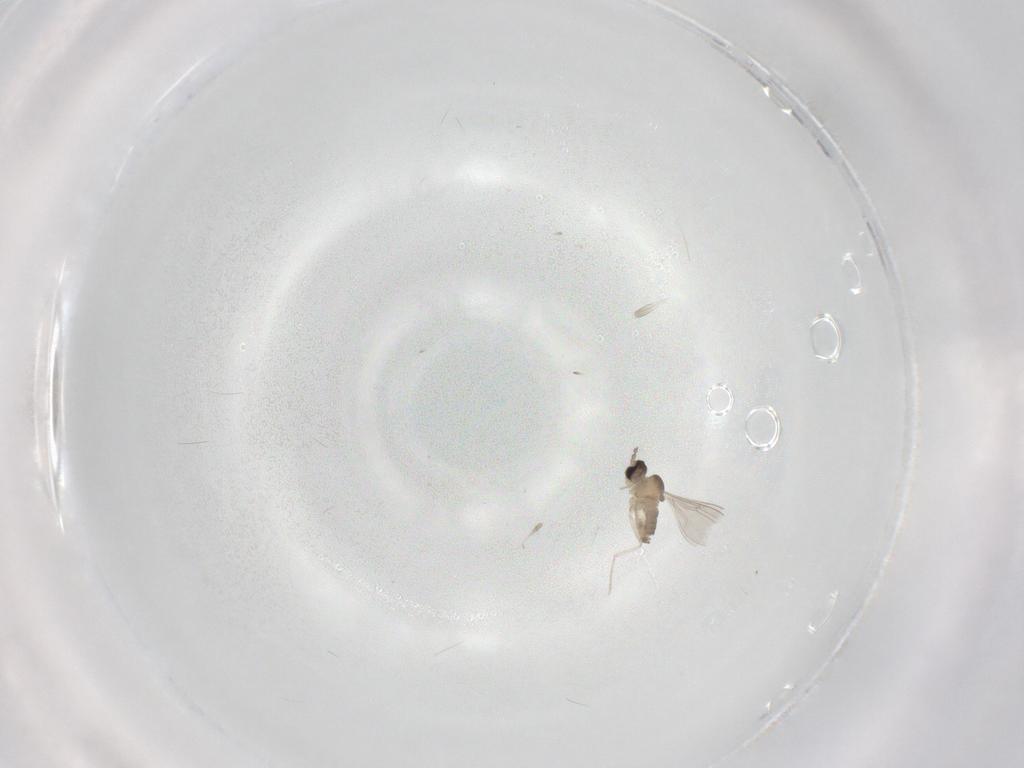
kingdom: Animalia
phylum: Arthropoda
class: Insecta
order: Diptera
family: Cecidomyiidae
